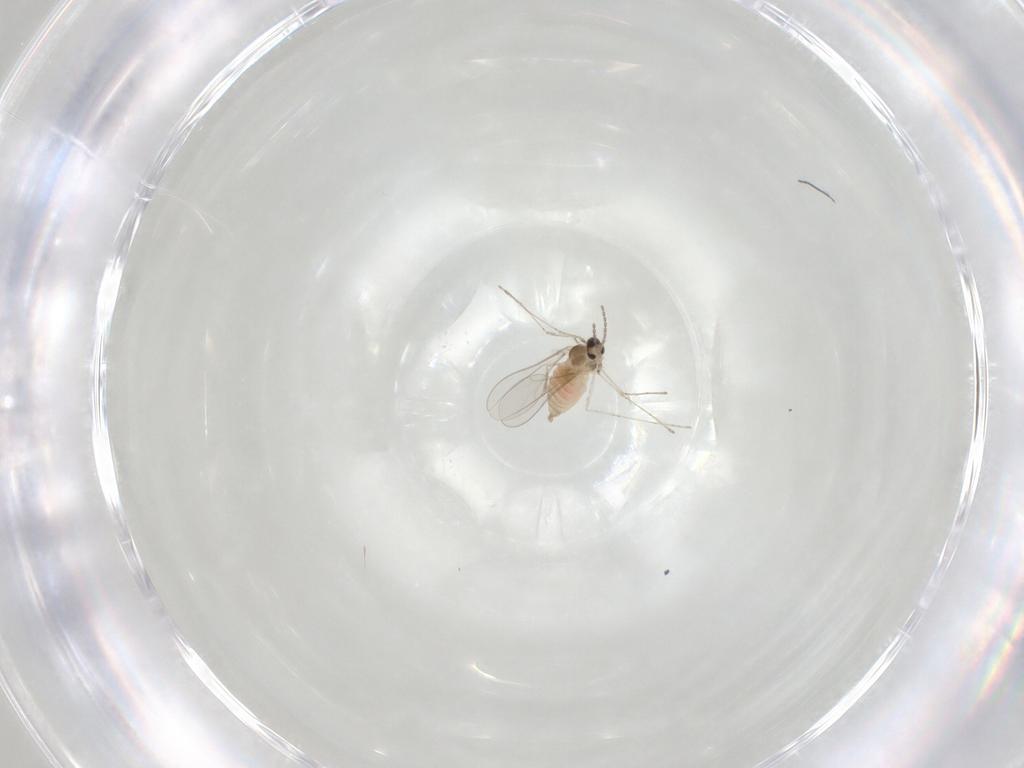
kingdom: Animalia
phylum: Arthropoda
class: Insecta
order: Diptera
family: Cecidomyiidae
